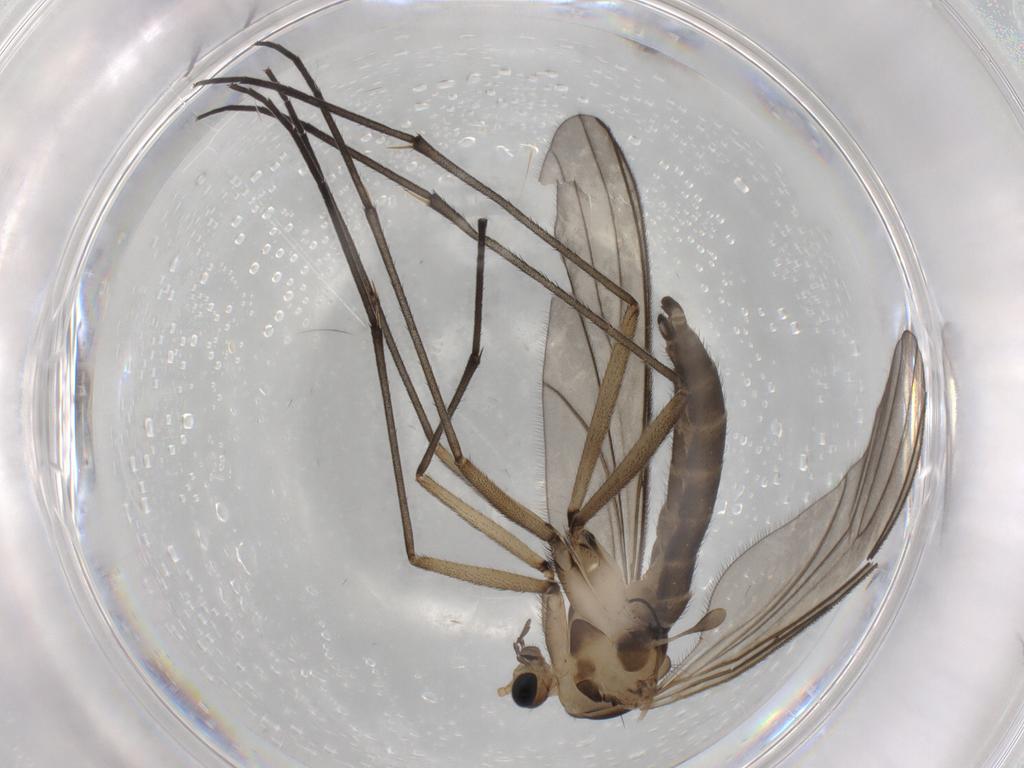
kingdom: Animalia
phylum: Arthropoda
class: Insecta
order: Diptera
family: Sciaridae
